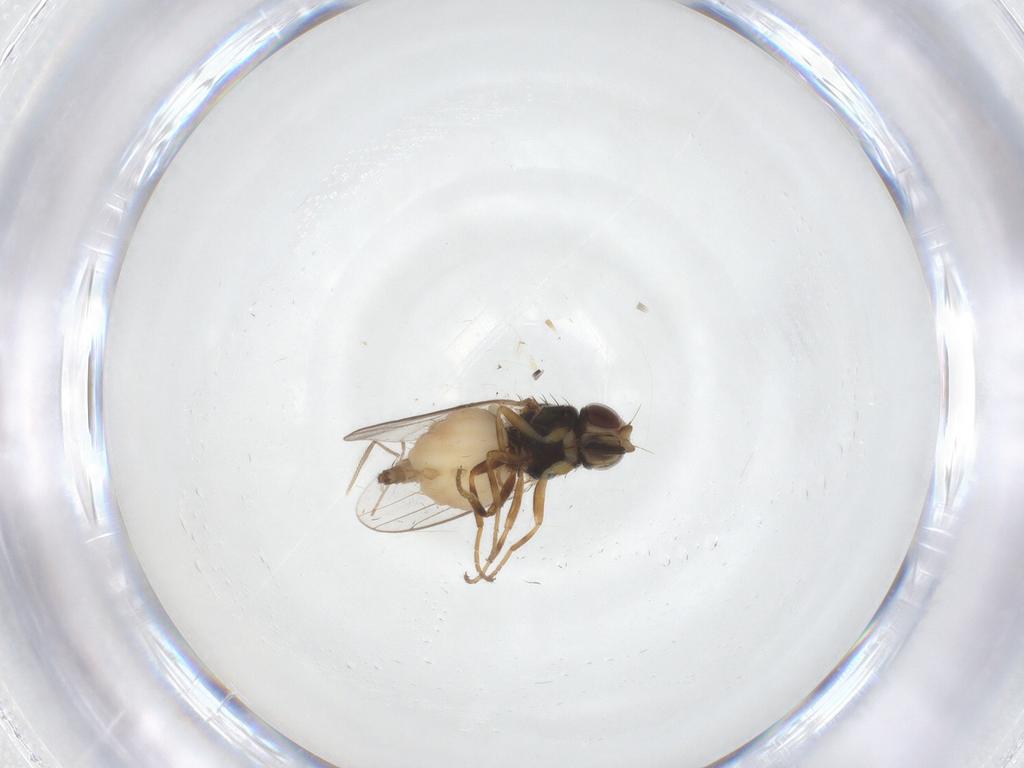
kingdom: Animalia
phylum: Arthropoda
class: Insecta
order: Diptera
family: Chloropidae
